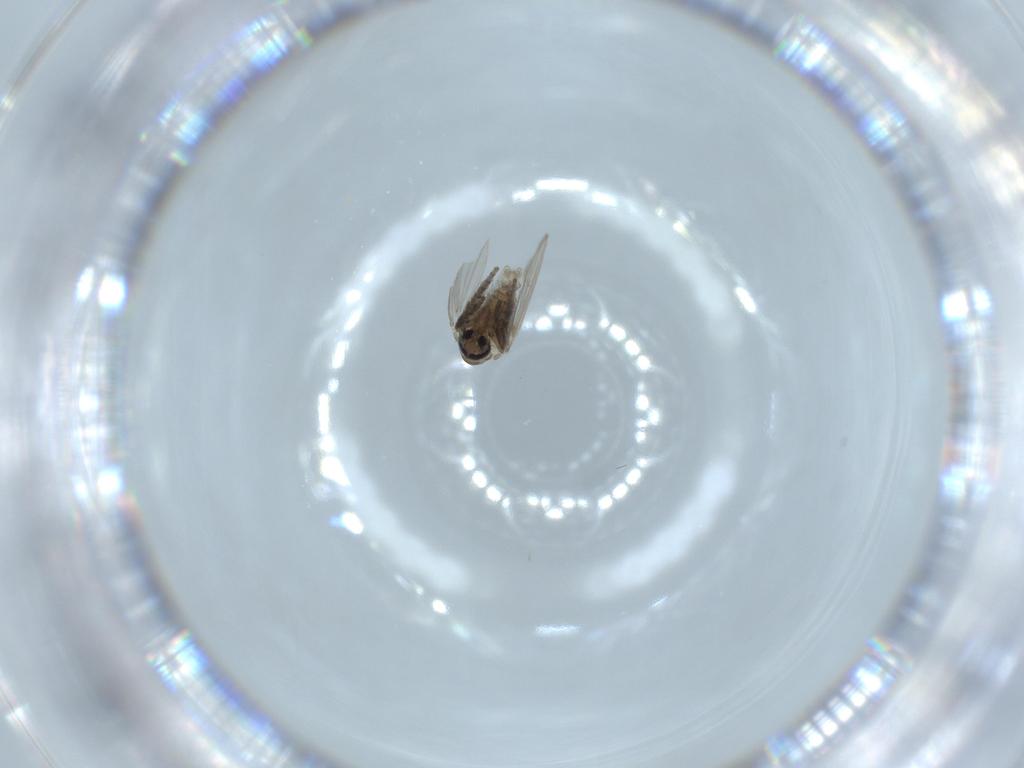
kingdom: Animalia
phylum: Arthropoda
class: Insecta
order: Diptera
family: Psychodidae
